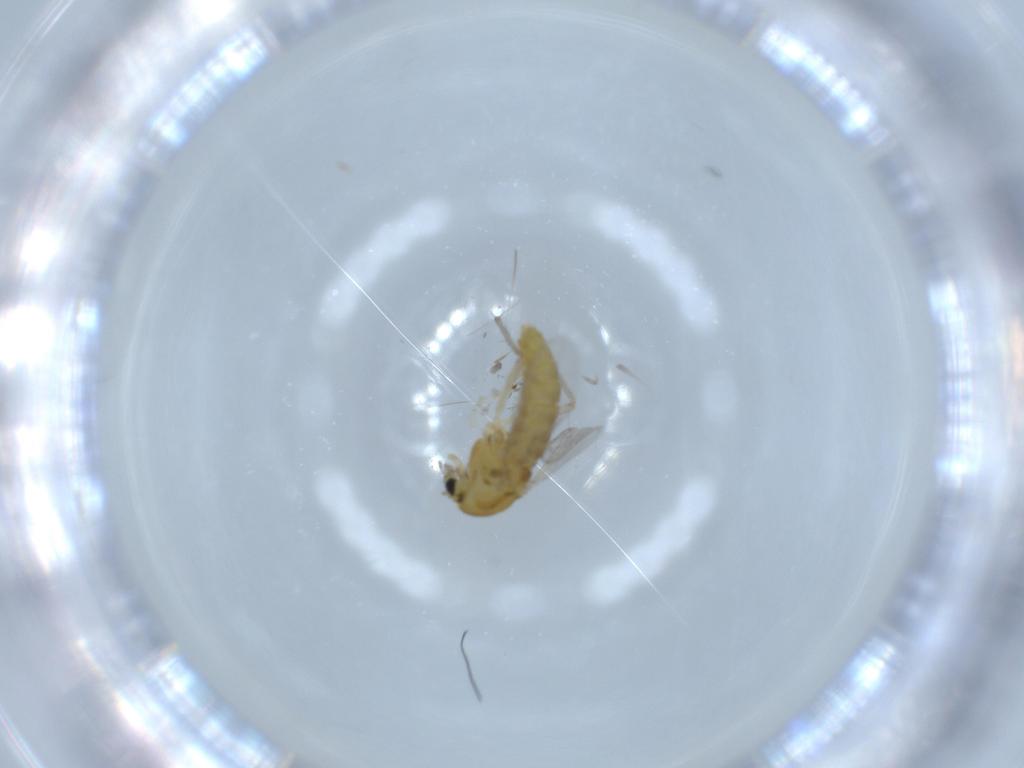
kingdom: Animalia
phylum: Arthropoda
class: Insecta
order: Diptera
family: Chironomidae
